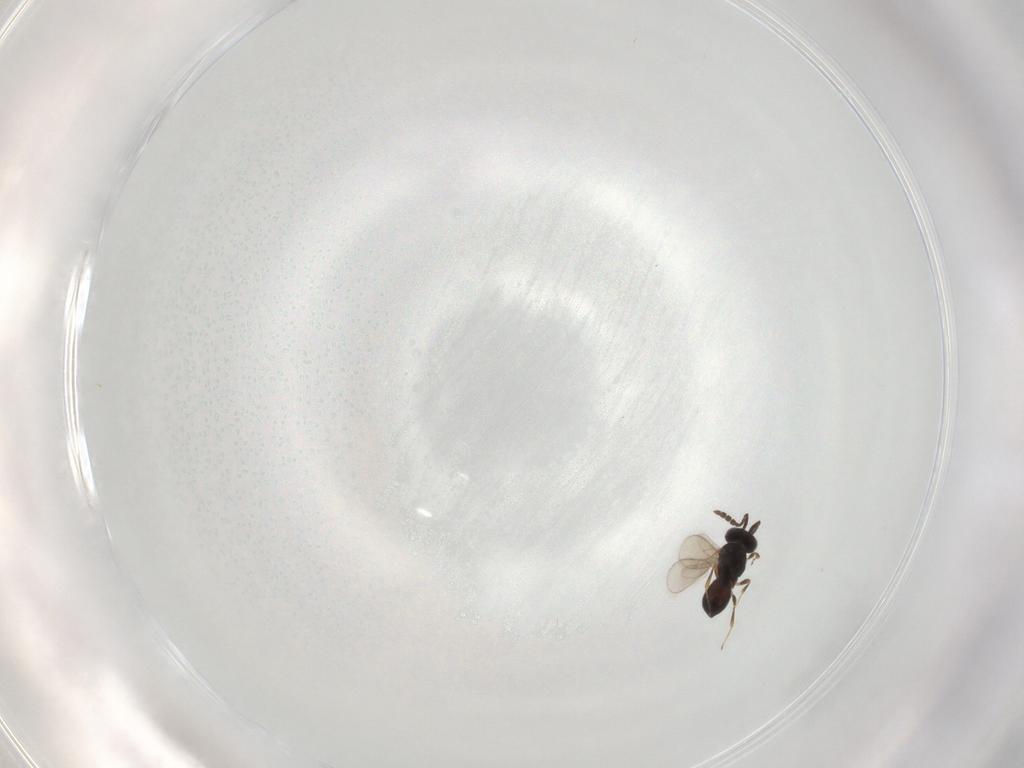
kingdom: Animalia
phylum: Arthropoda
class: Insecta
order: Hymenoptera
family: Scelionidae
